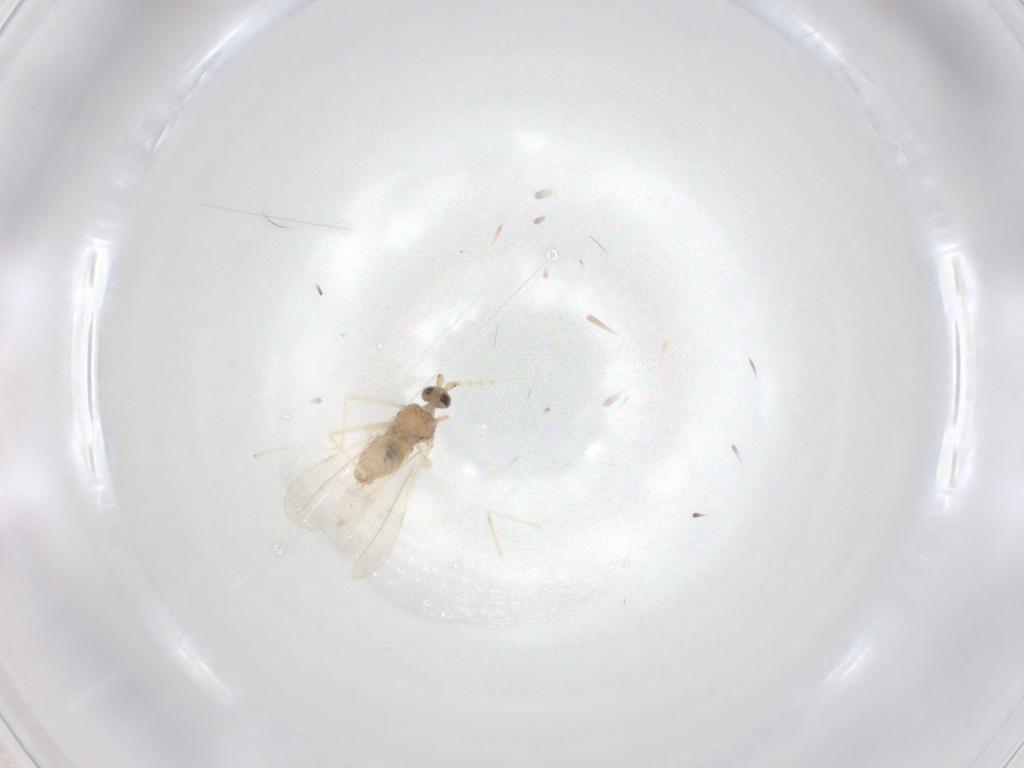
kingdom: Animalia
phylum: Arthropoda
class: Insecta
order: Diptera
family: Cecidomyiidae
